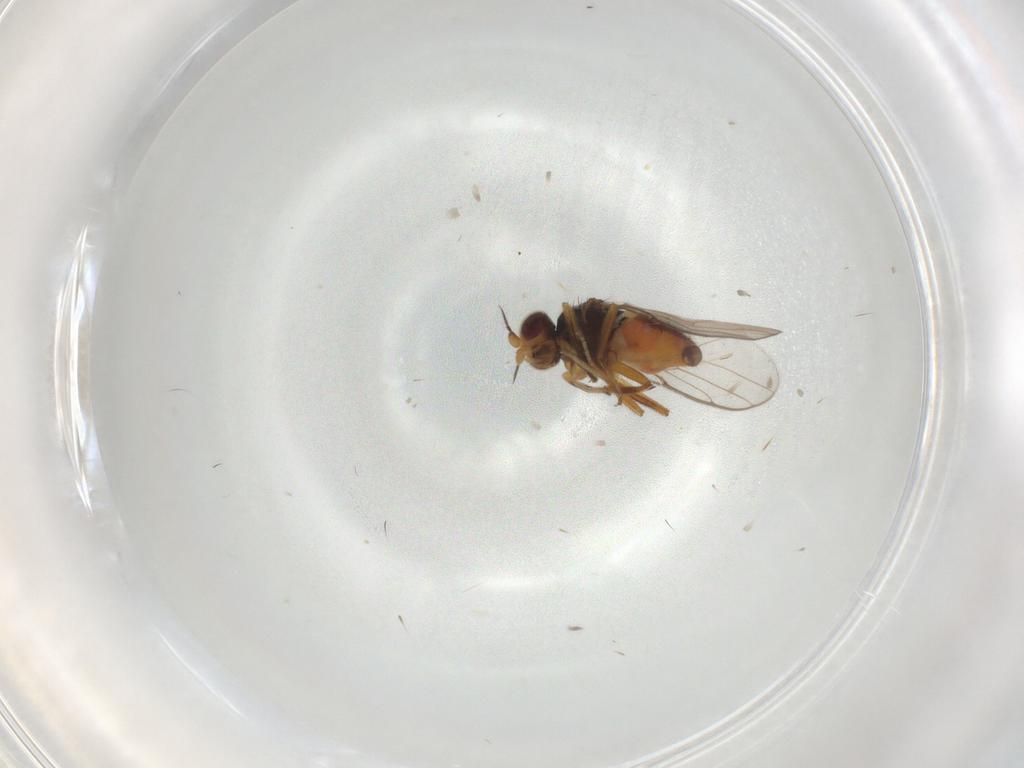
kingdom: Animalia
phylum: Arthropoda
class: Insecta
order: Diptera
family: Chloropidae
